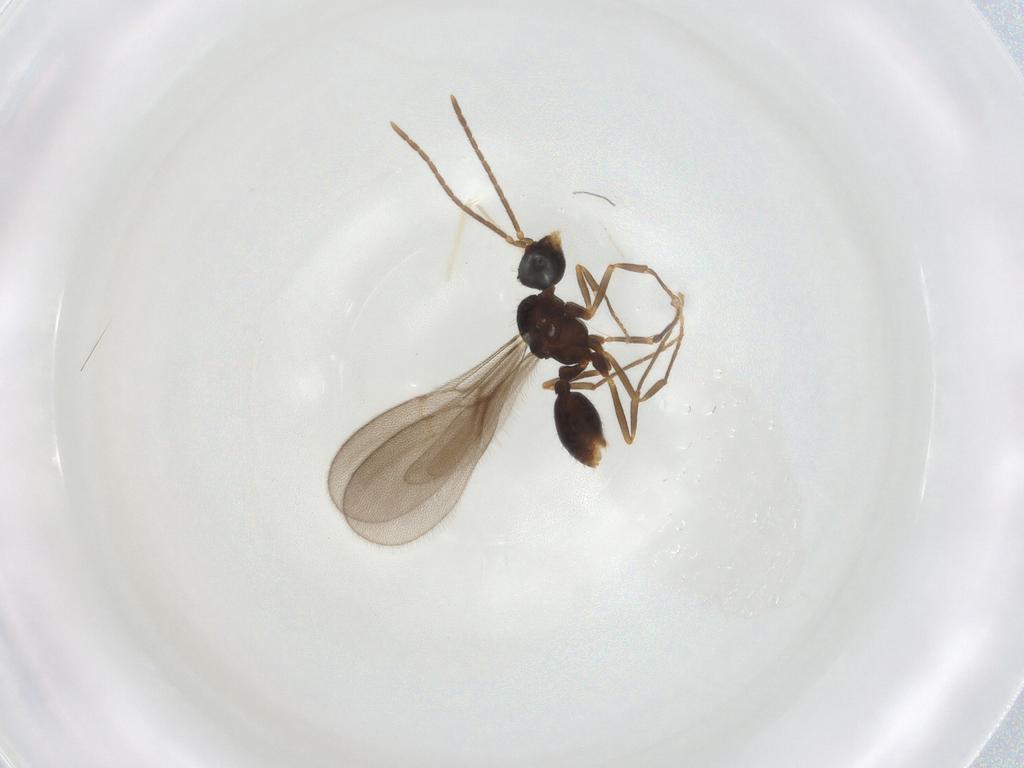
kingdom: Animalia
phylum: Arthropoda
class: Insecta
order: Hymenoptera
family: Formicidae
